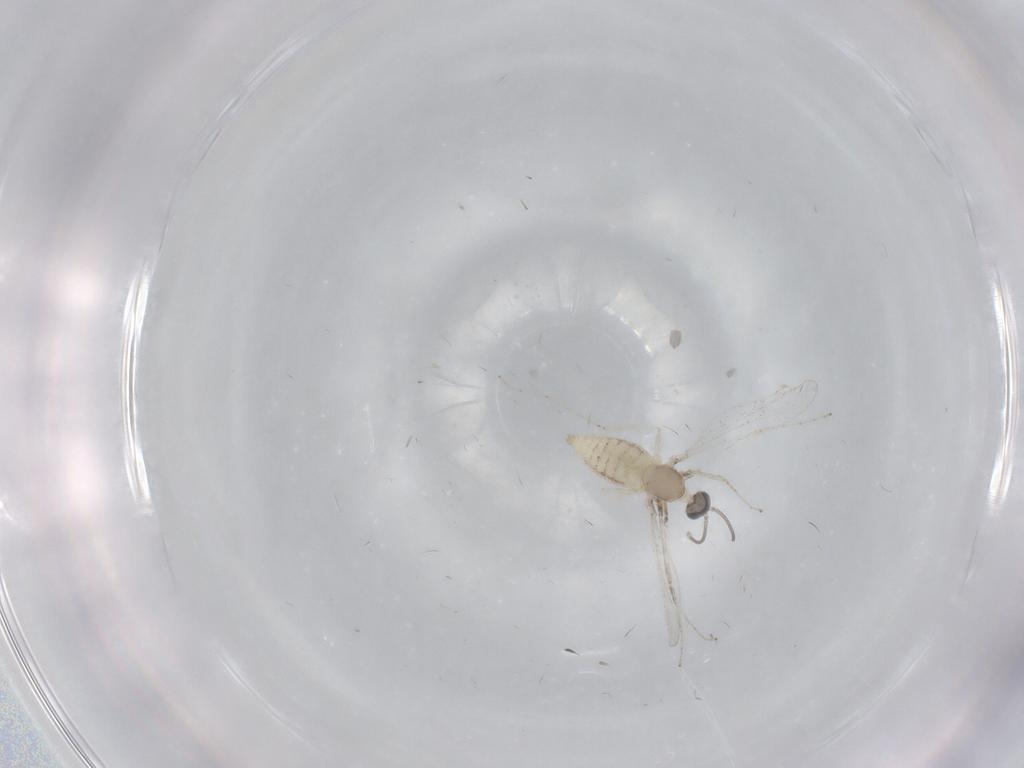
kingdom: Animalia
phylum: Arthropoda
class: Insecta
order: Diptera
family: Cecidomyiidae
